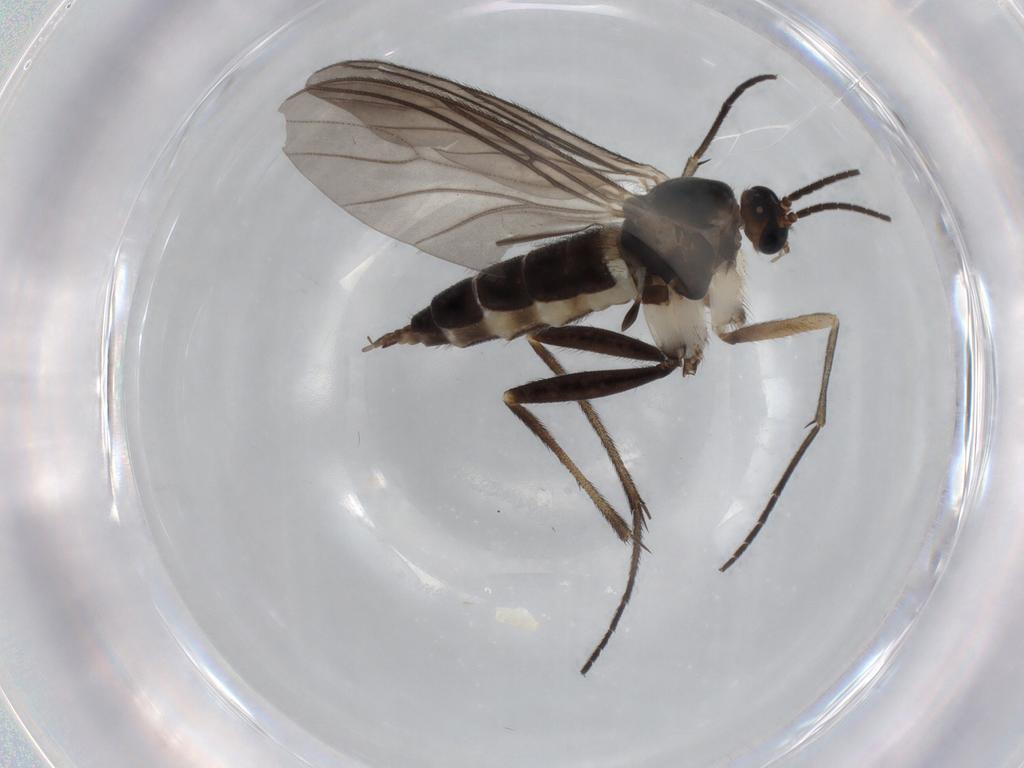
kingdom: Animalia
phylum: Arthropoda
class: Insecta
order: Diptera
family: Sciaridae
